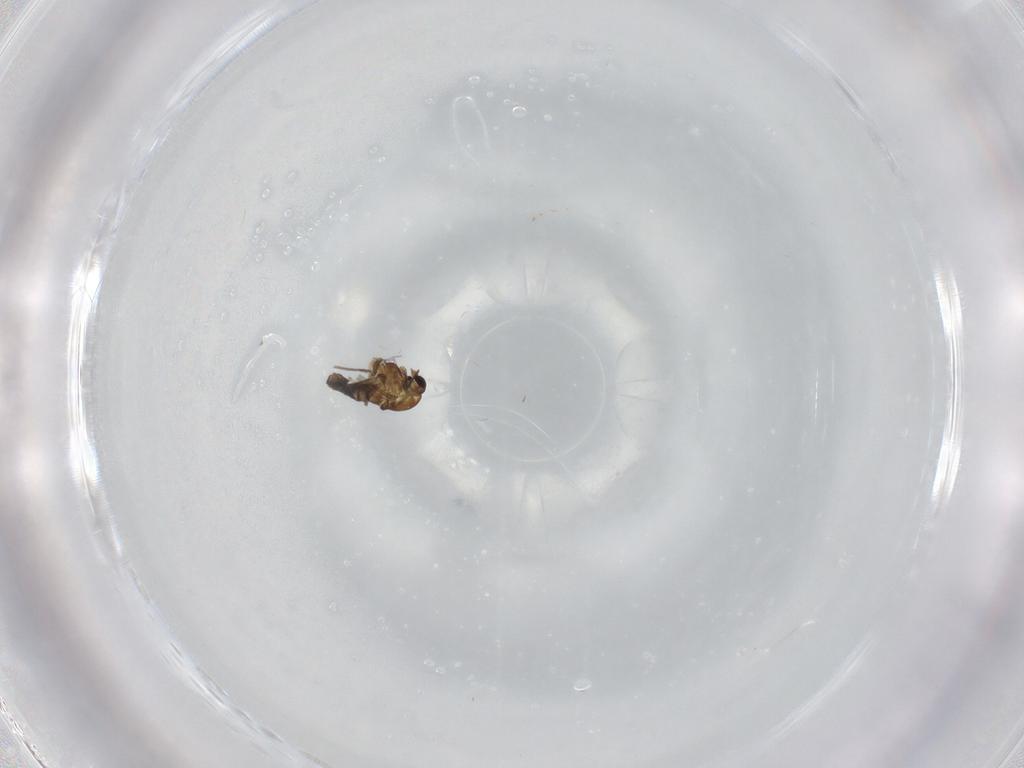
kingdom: Animalia
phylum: Arthropoda
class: Insecta
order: Diptera
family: Chironomidae
